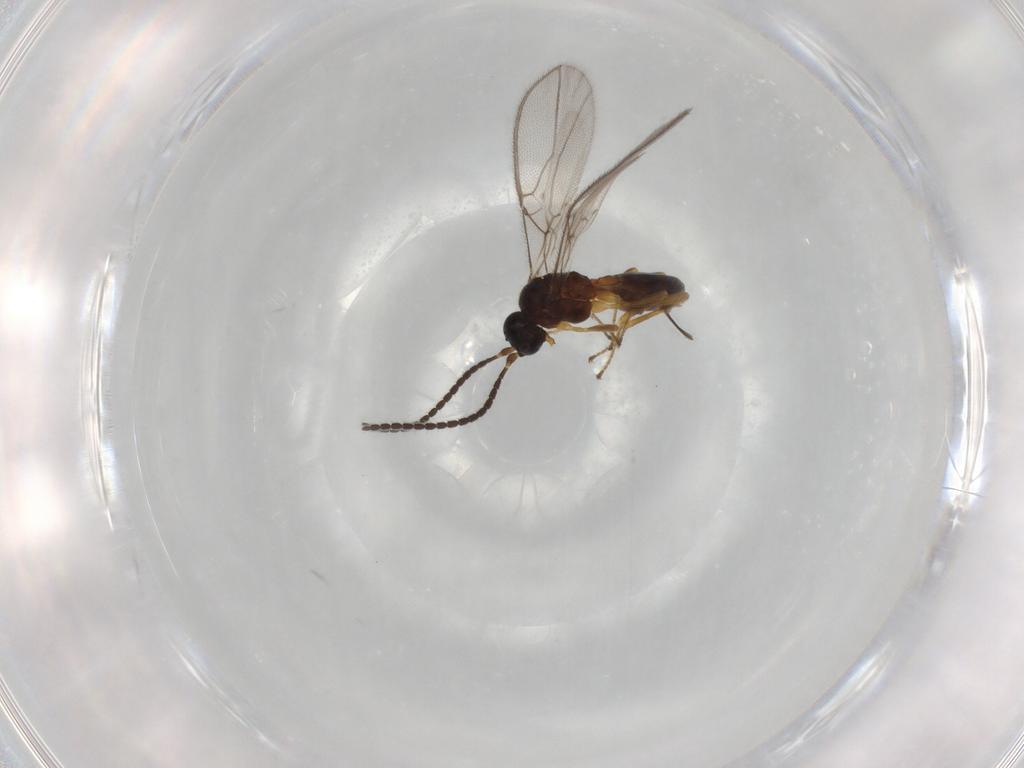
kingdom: Animalia
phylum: Arthropoda
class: Insecta
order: Hymenoptera
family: Braconidae
